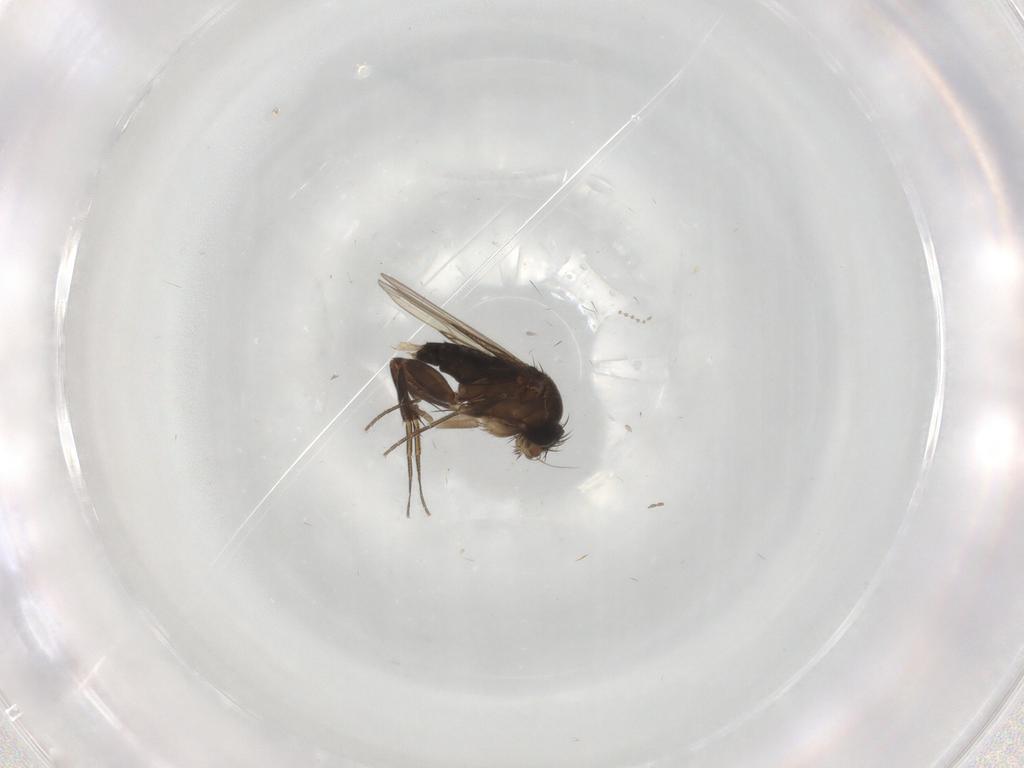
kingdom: Animalia
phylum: Arthropoda
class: Insecta
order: Diptera
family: Cecidomyiidae
